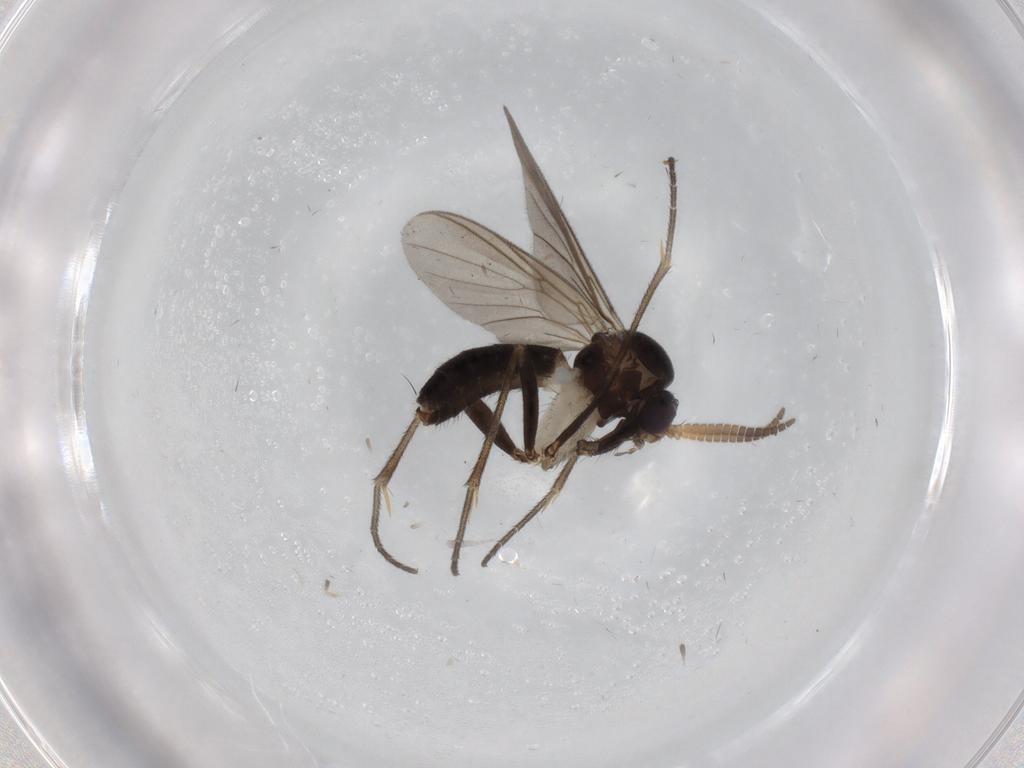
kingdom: Animalia
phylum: Arthropoda
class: Insecta
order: Diptera
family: Mycetophilidae
